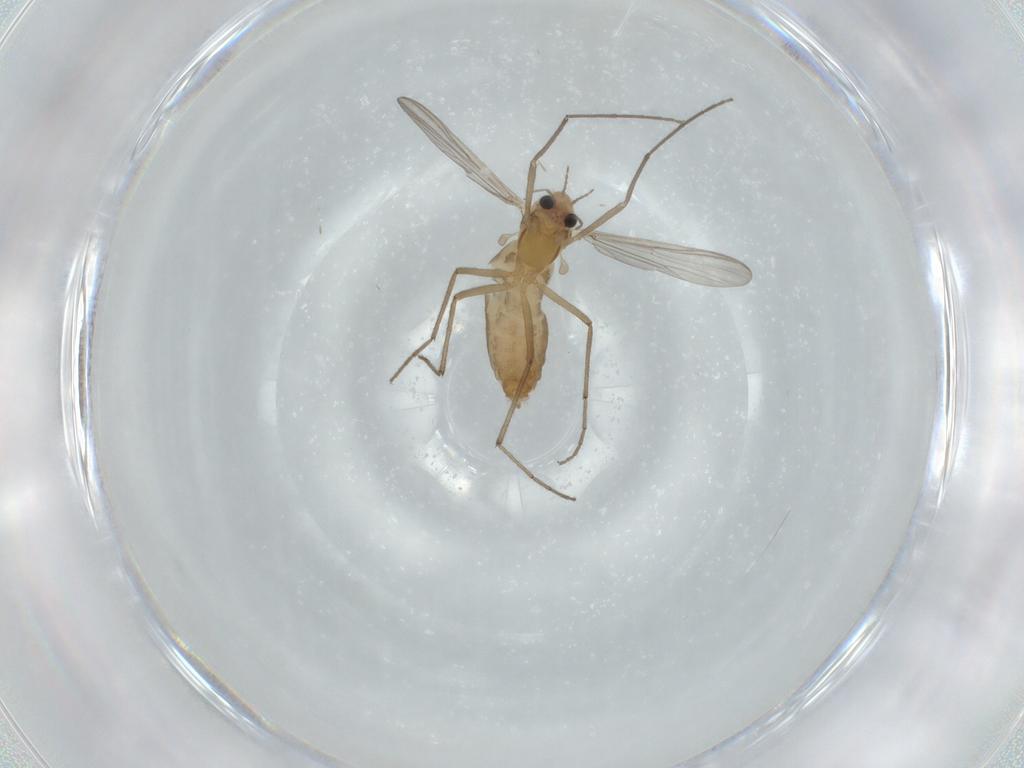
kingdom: Animalia
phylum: Arthropoda
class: Insecta
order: Diptera
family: Chironomidae
